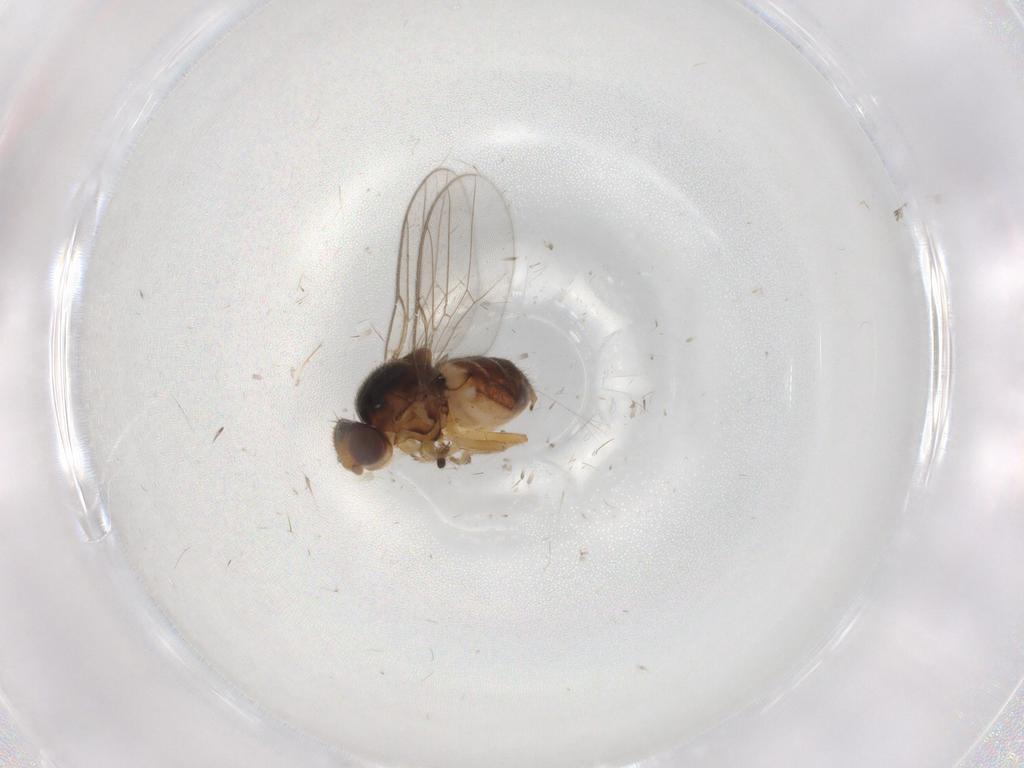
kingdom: Animalia
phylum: Arthropoda
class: Insecta
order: Diptera
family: Chloropidae
